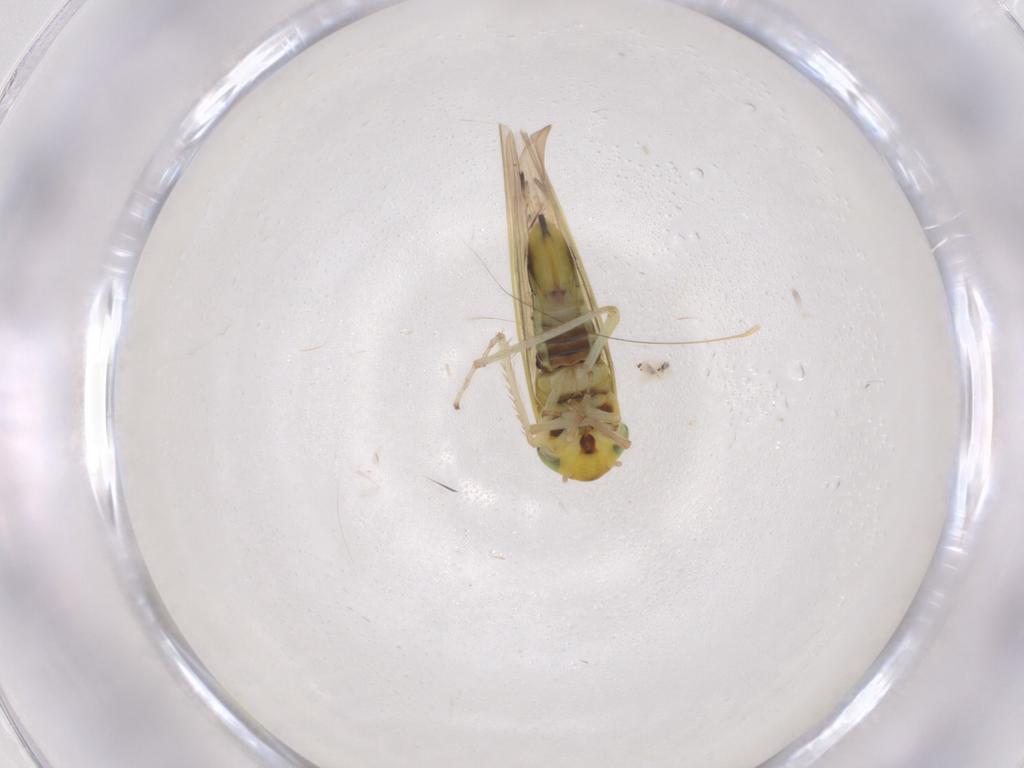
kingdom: Animalia
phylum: Arthropoda
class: Insecta
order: Hemiptera
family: Cicadellidae
